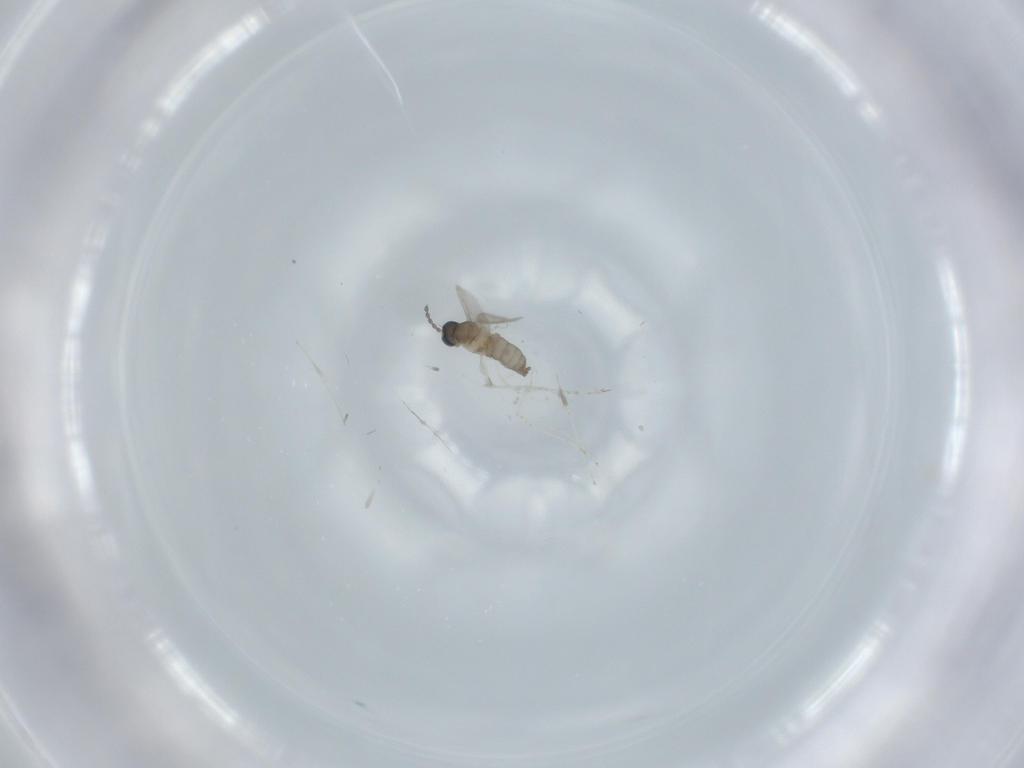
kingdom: Animalia
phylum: Arthropoda
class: Insecta
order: Diptera
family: Cecidomyiidae
